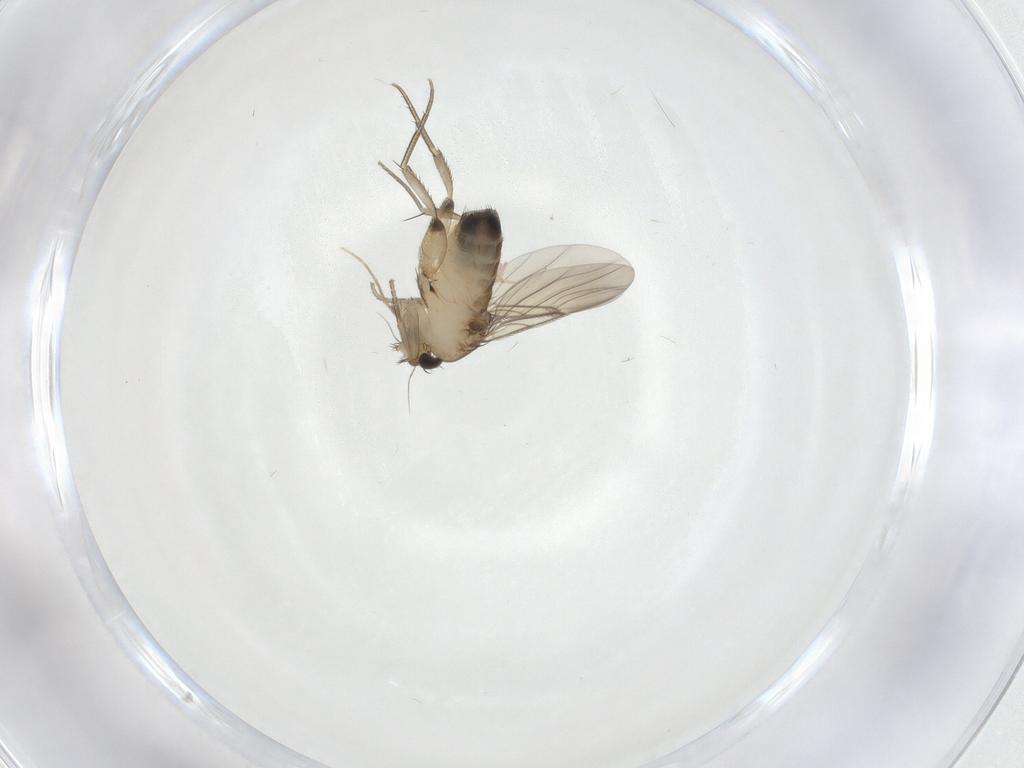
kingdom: Animalia
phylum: Arthropoda
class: Insecta
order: Diptera
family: Phoridae
